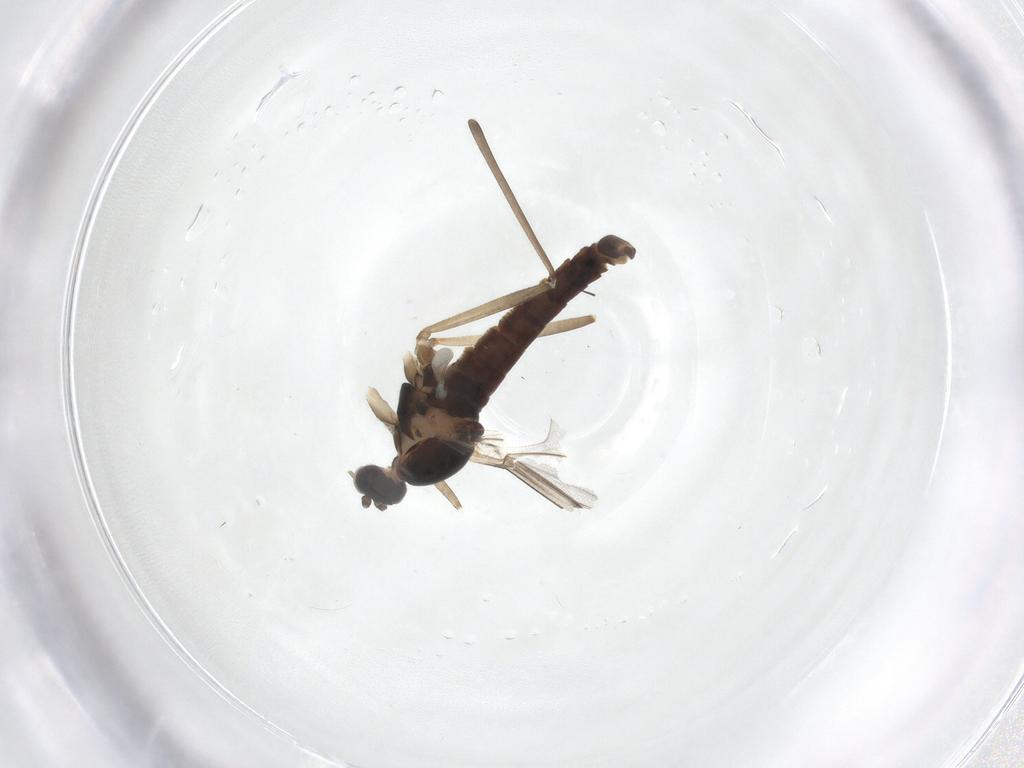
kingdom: Animalia
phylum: Arthropoda
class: Insecta
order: Diptera
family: Cecidomyiidae
